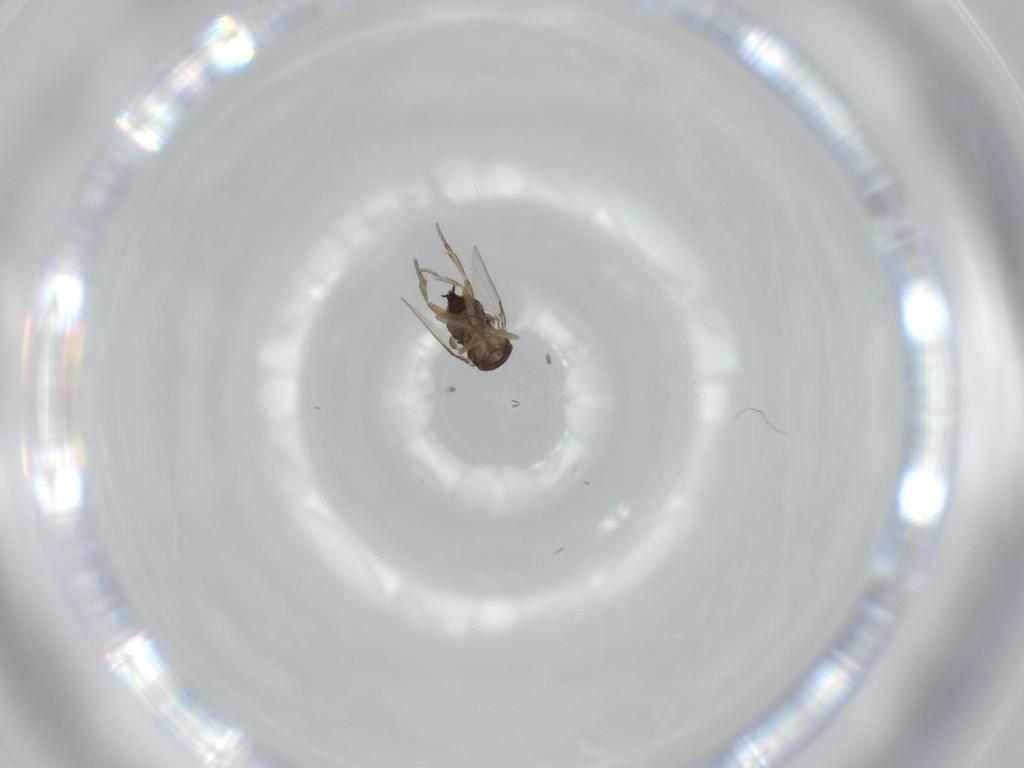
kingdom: Animalia
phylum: Arthropoda
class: Insecta
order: Diptera
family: Phoridae
